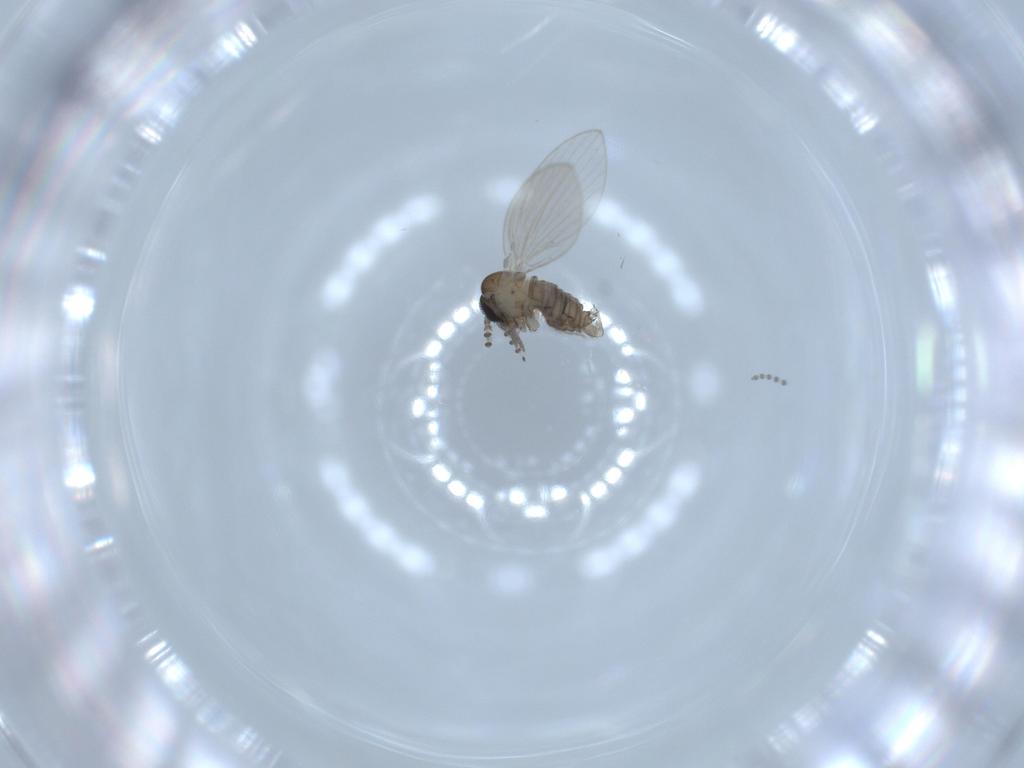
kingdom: Animalia
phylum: Arthropoda
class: Insecta
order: Diptera
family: Psychodidae
